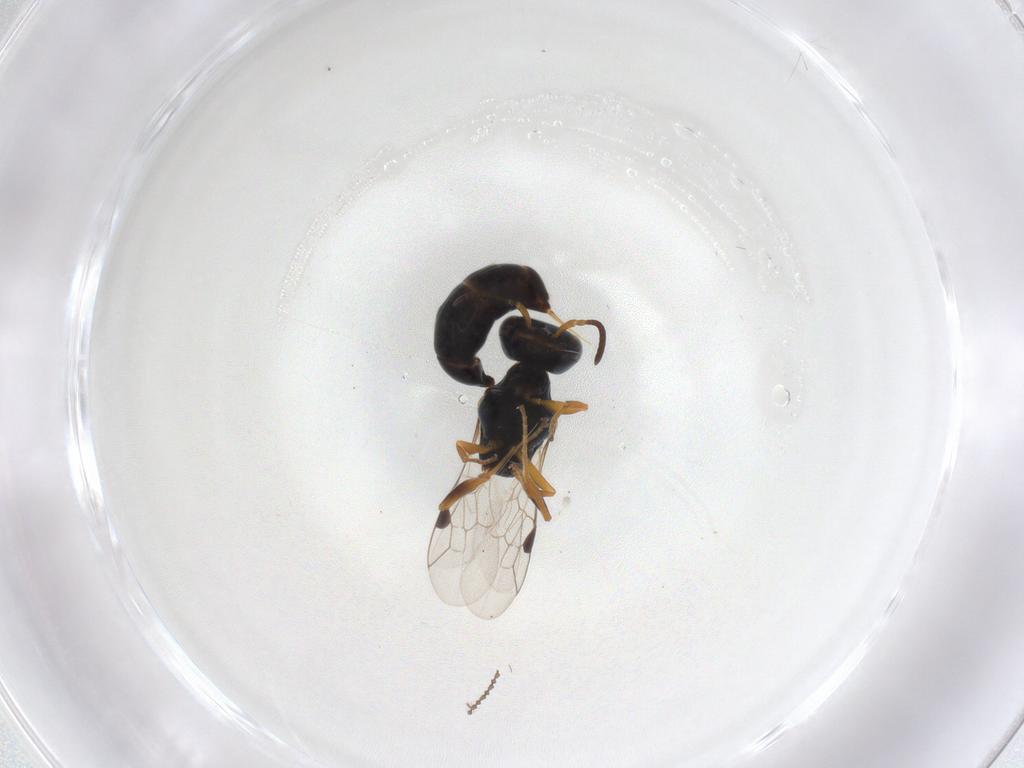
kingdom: Animalia
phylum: Arthropoda
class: Insecta
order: Hymenoptera
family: Pemphredonidae
